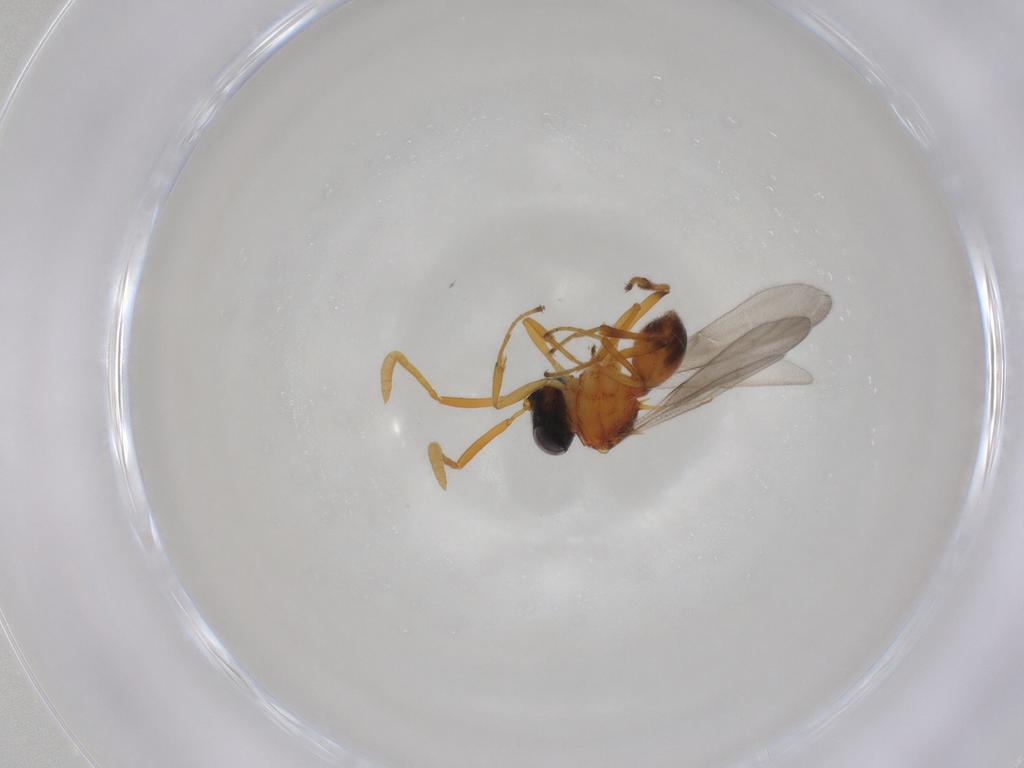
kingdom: Animalia
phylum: Arthropoda
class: Insecta
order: Hymenoptera
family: Scelionidae
